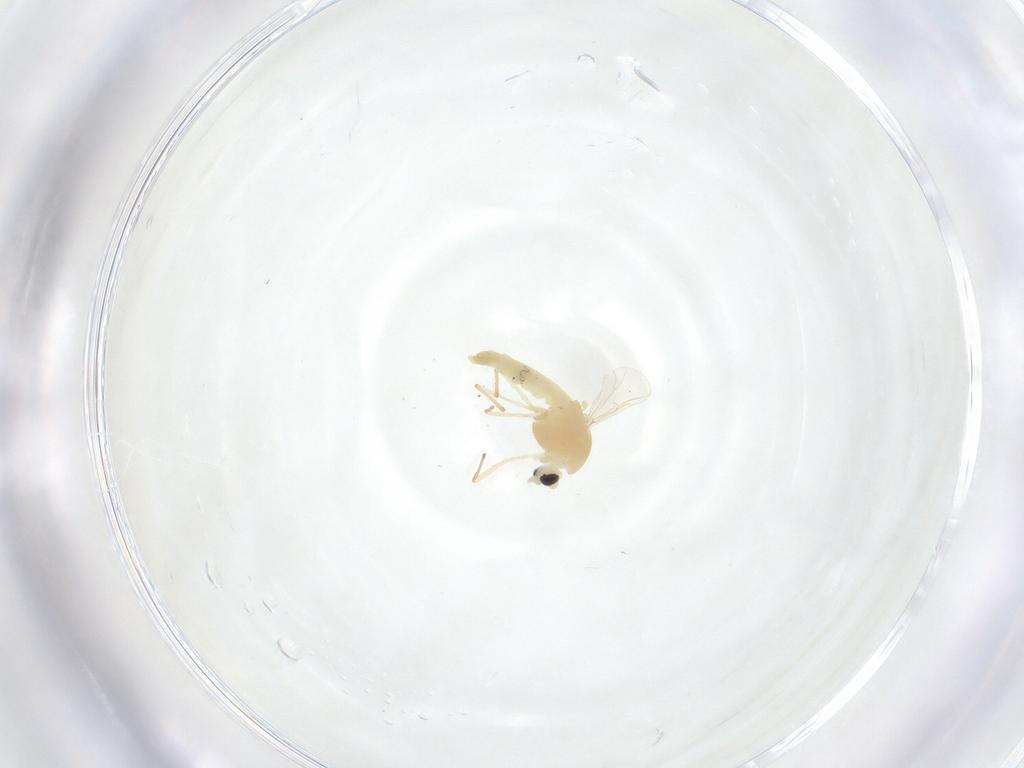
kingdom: Animalia
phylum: Arthropoda
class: Insecta
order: Diptera
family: Chironomidae
